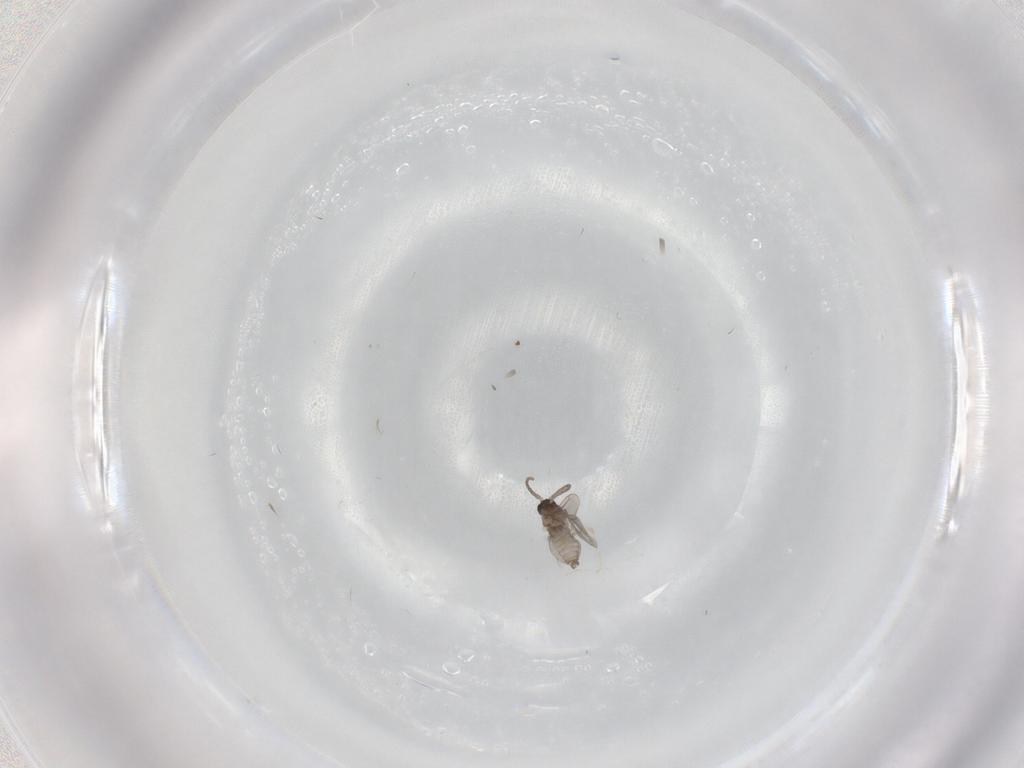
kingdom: Animalia
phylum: Arthropoda
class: Insecta
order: Diptera
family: Cecidomyiidae
